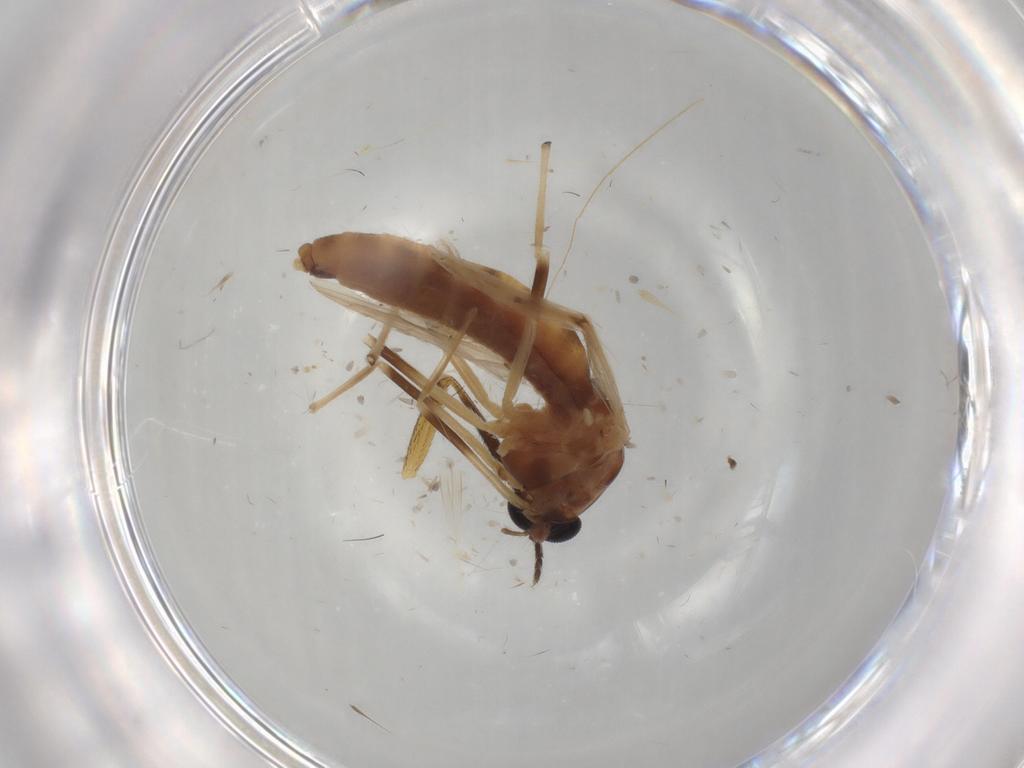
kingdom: Animalia
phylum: Arthropoda
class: Insecta
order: Diptera
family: Muscidae
